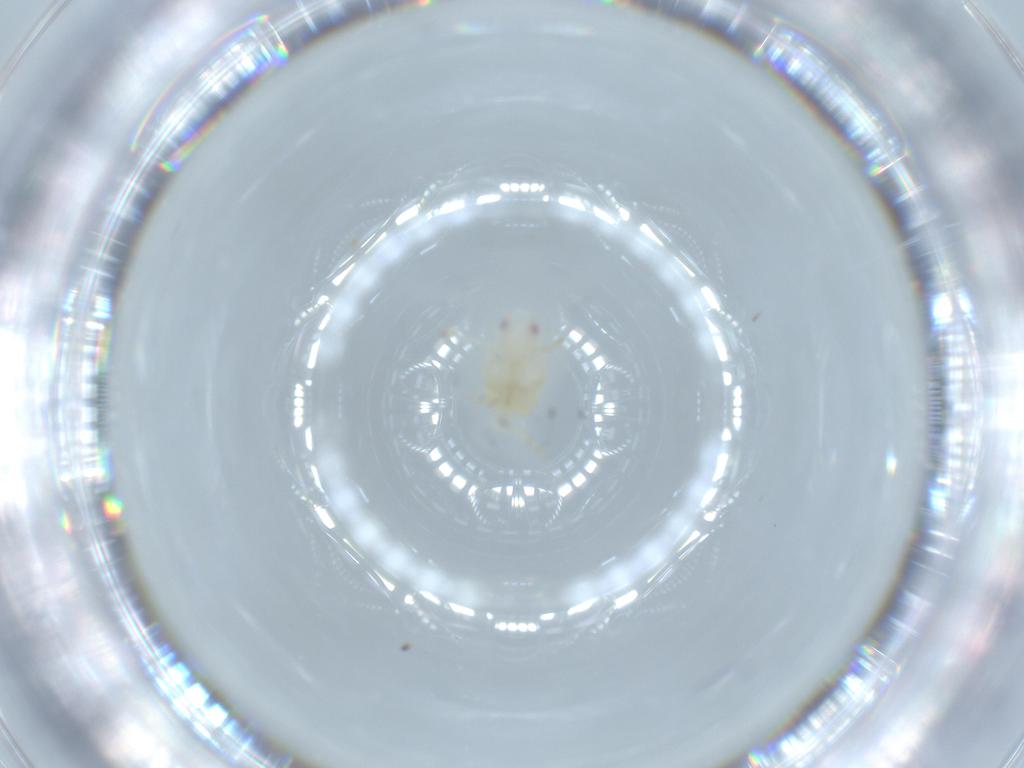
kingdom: Animalia
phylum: Arthropoda
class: Insecta
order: Hemiptera
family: Flatidae
